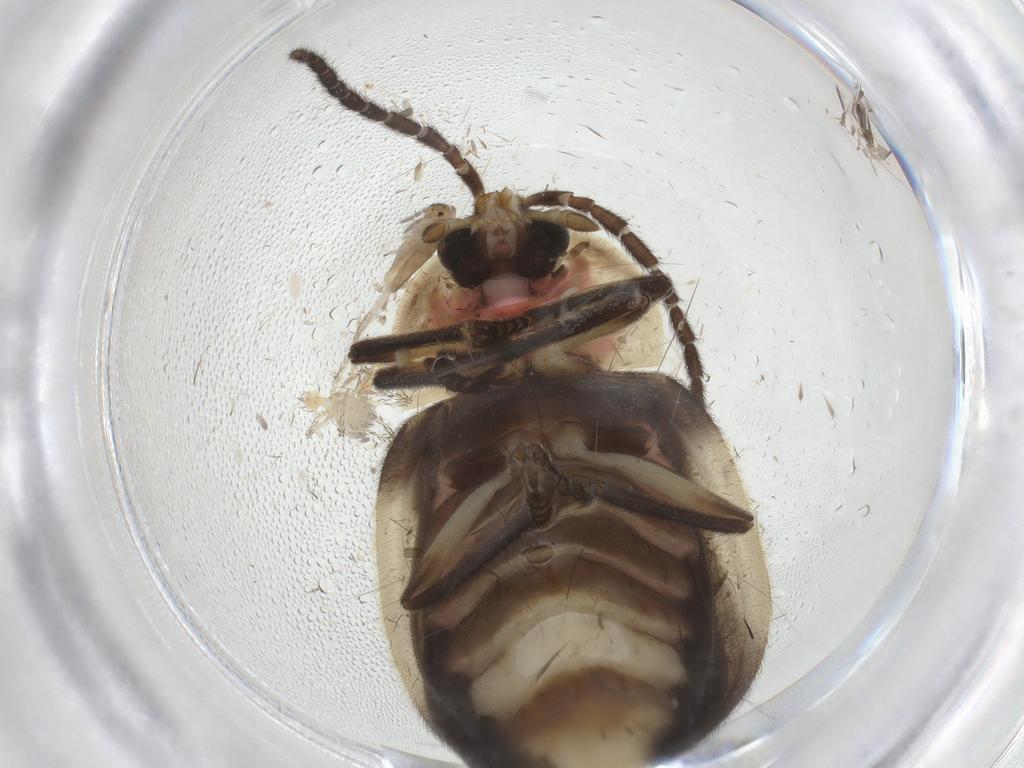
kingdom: Animalia
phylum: Arthropoda
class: Insecta
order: Coleoptera
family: Lampyridae
